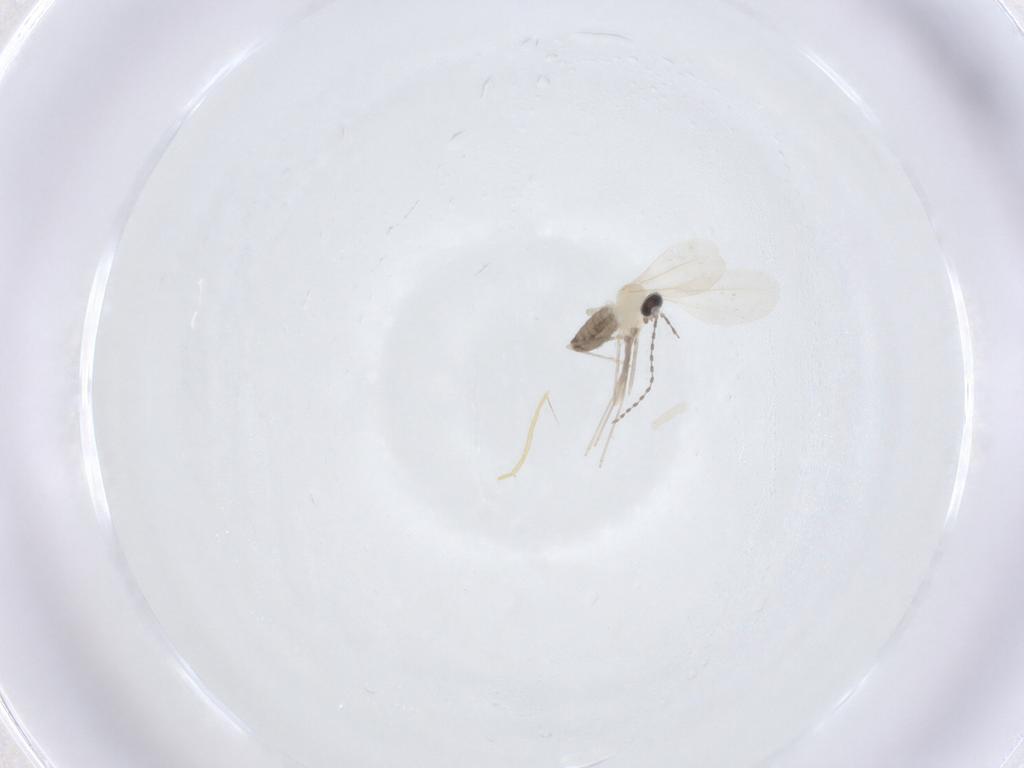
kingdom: Animalia
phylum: Arthropoda
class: Insecta
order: Diptera
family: Cecidomyiidae
